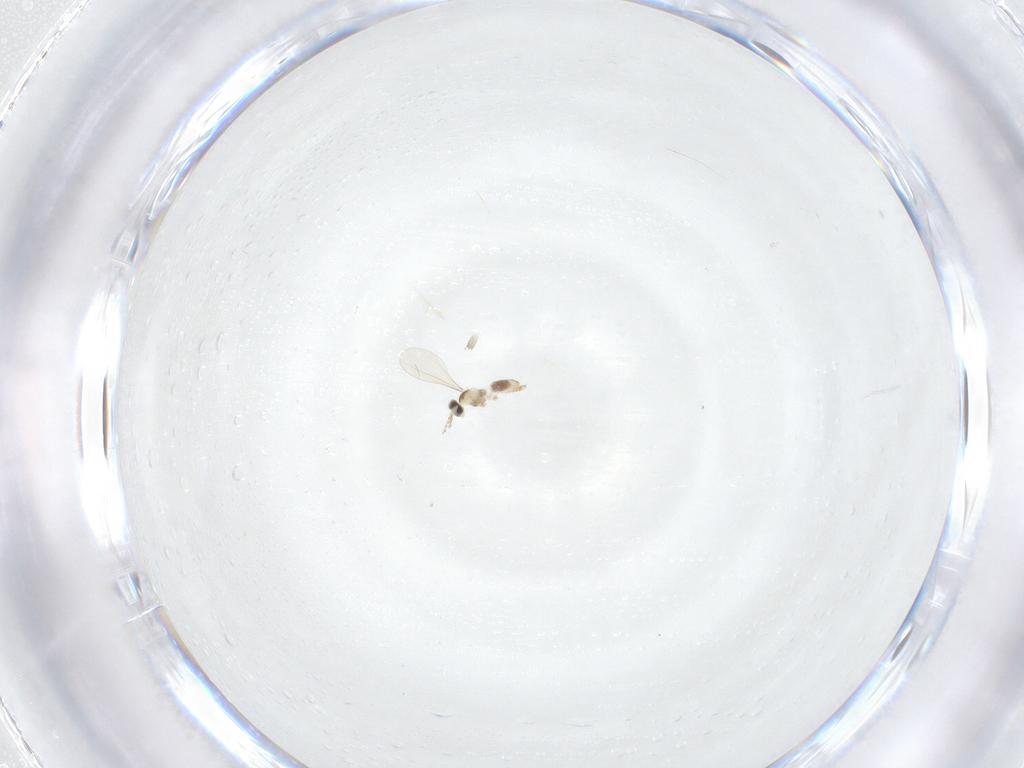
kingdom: Animalia
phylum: Arthropoda
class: Insecta
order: Diptera
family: Cecidomyiidae
